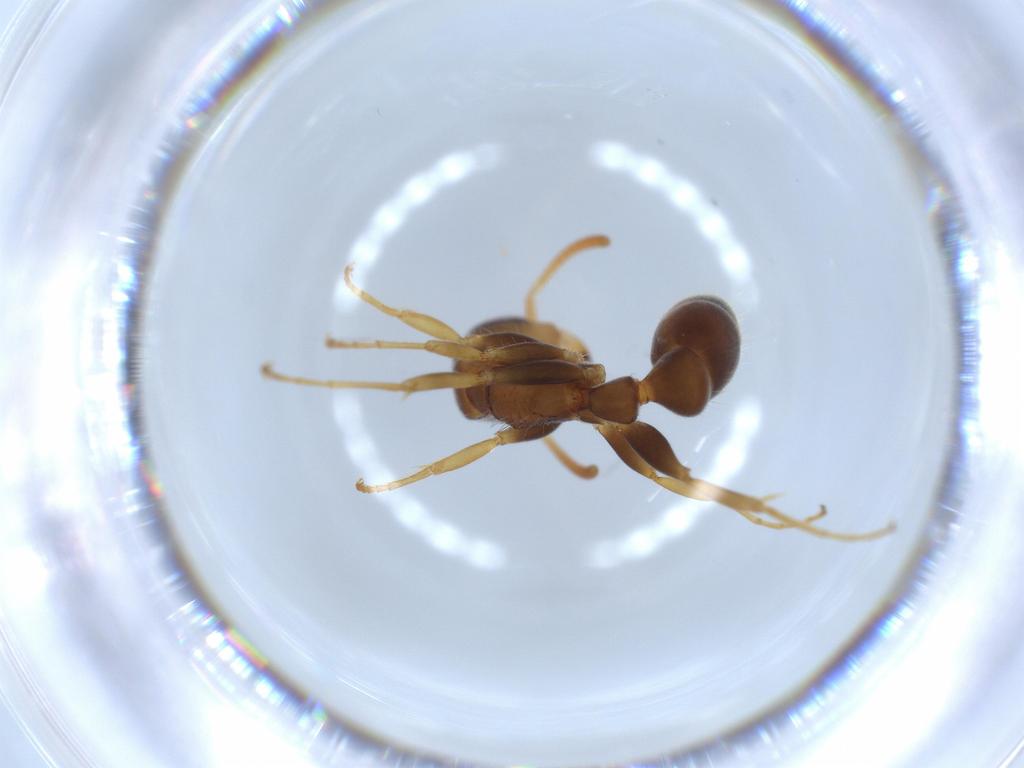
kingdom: Animalia
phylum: Arthropoda
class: Insecta
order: Hymenoptera
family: Formicidae
